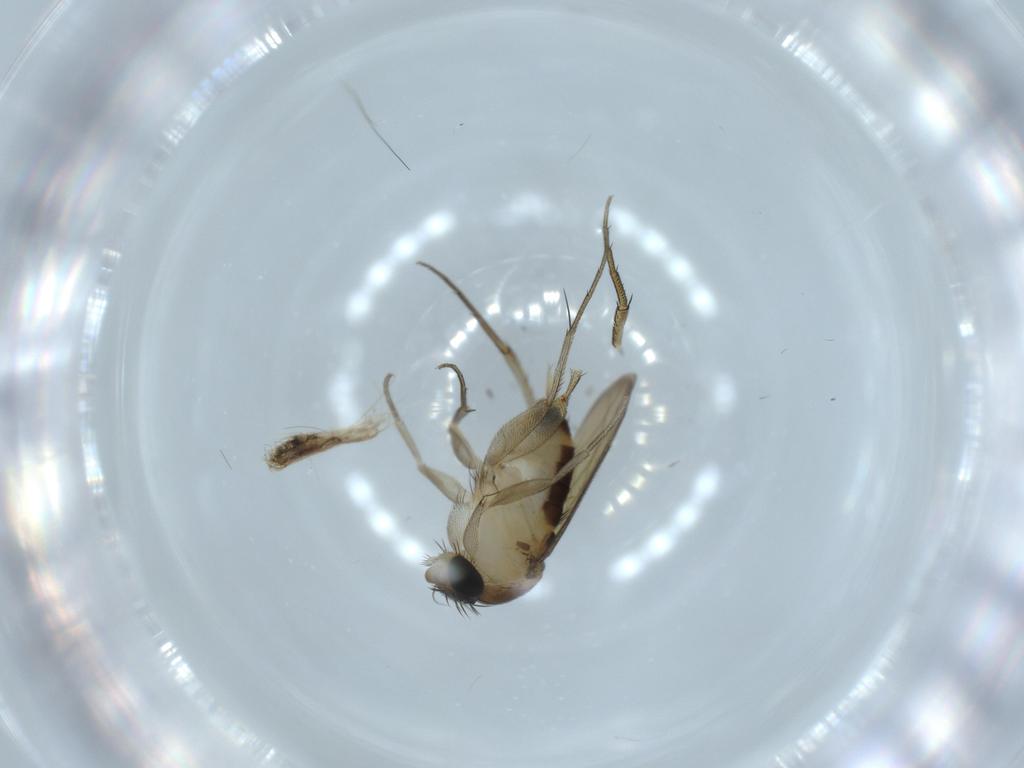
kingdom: Animalia
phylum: Arthropoda
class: Insecta
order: Diptera
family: Phoridae
